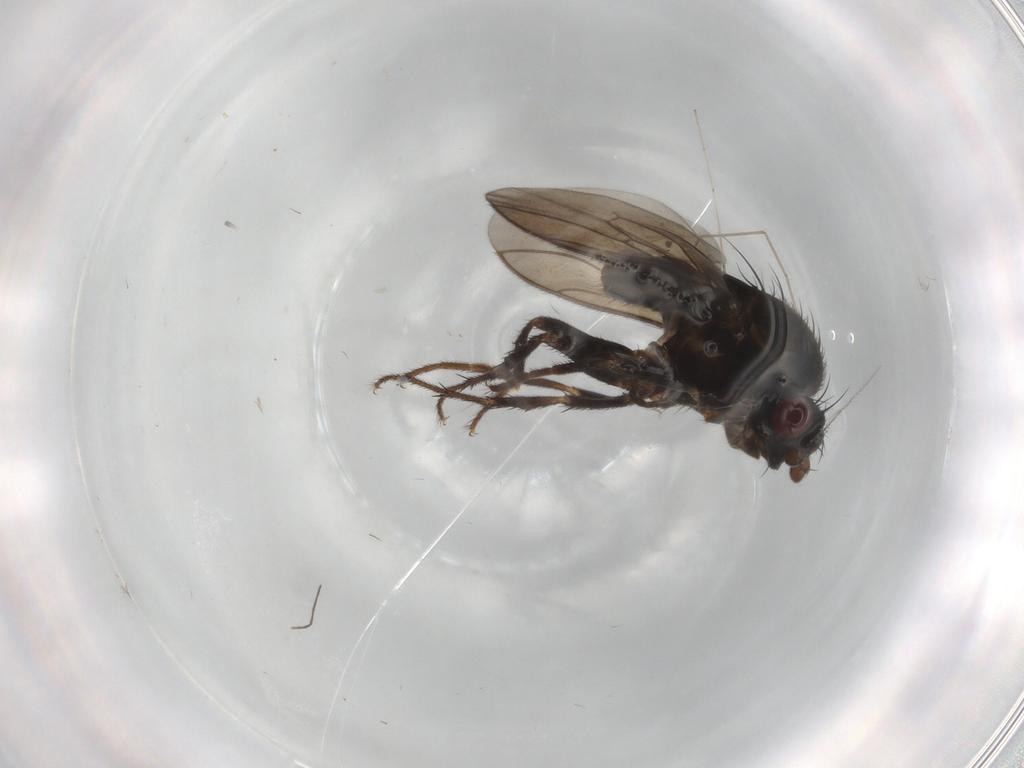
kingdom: Animalia
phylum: Arthropoda
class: Insecta
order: Diptera
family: Sphaeroceridae
